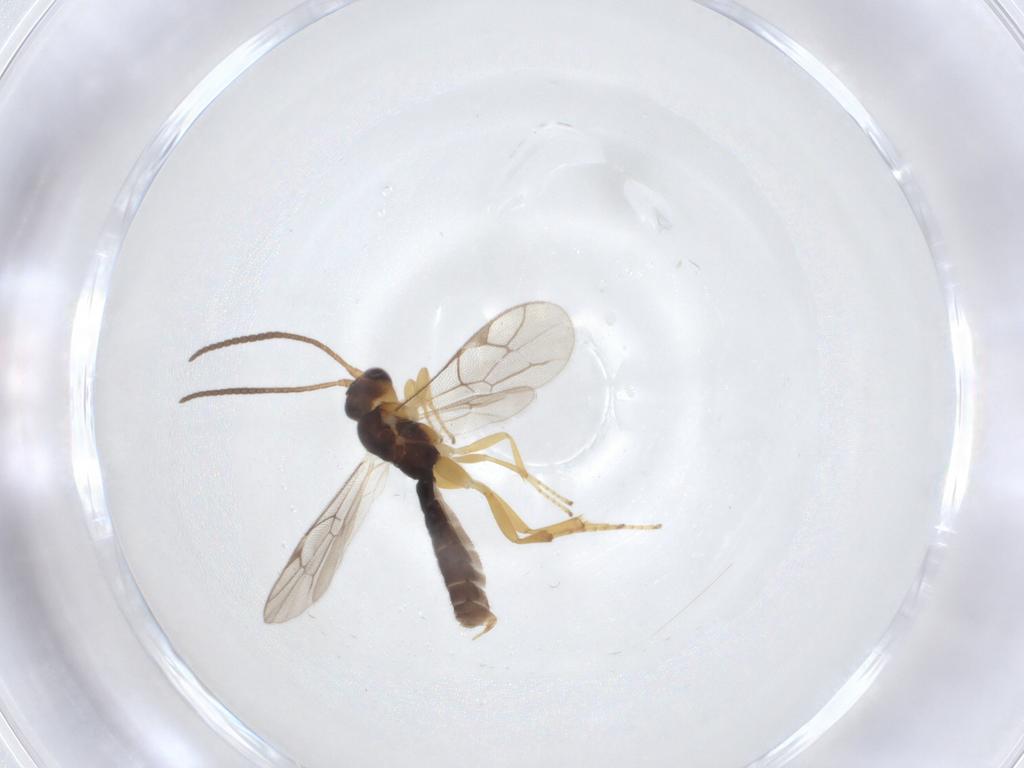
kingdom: Animalia
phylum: Arthropoda
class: Insecta
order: Hymenoptera
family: Ichneumonidae
